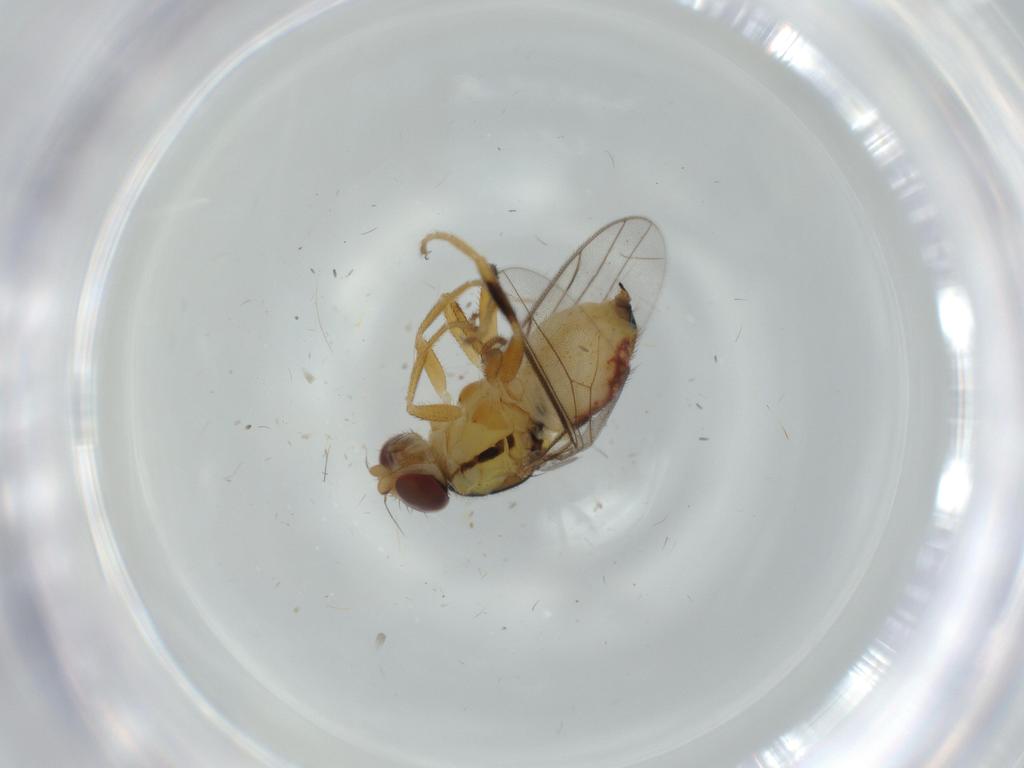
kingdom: Animalia
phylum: Arthropoda
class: Insecta
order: Diptera
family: Chloropidae
